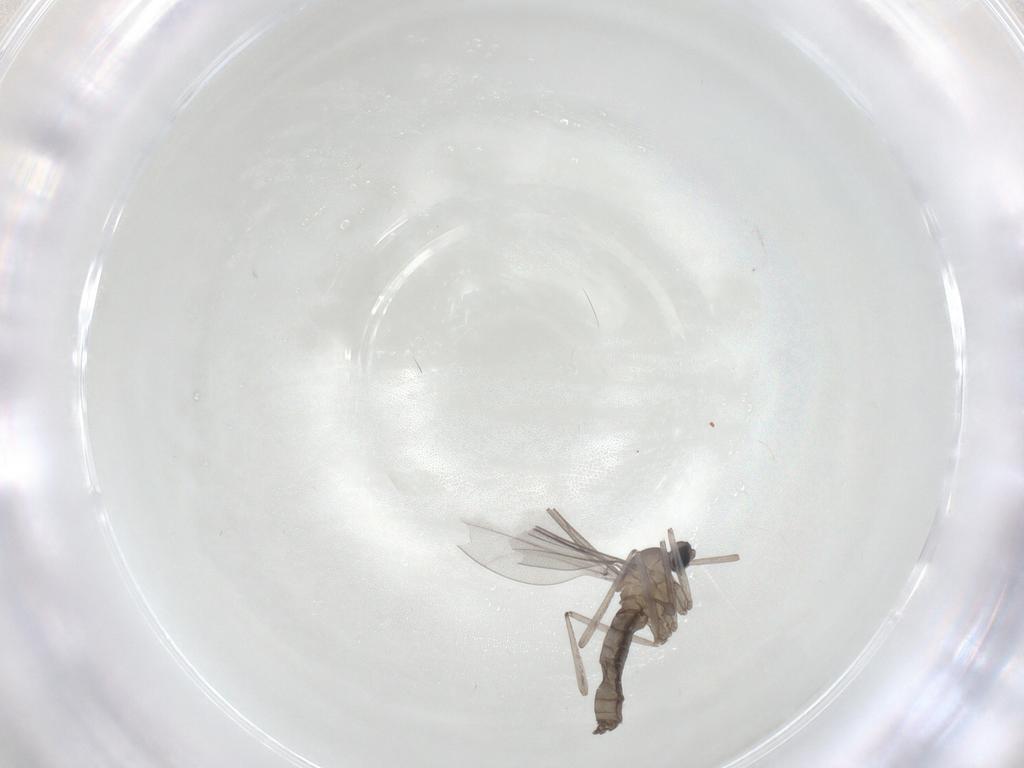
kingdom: Animalia
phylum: Arthropoda
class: Insecta
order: Diptera
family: Cecidomyiidae
